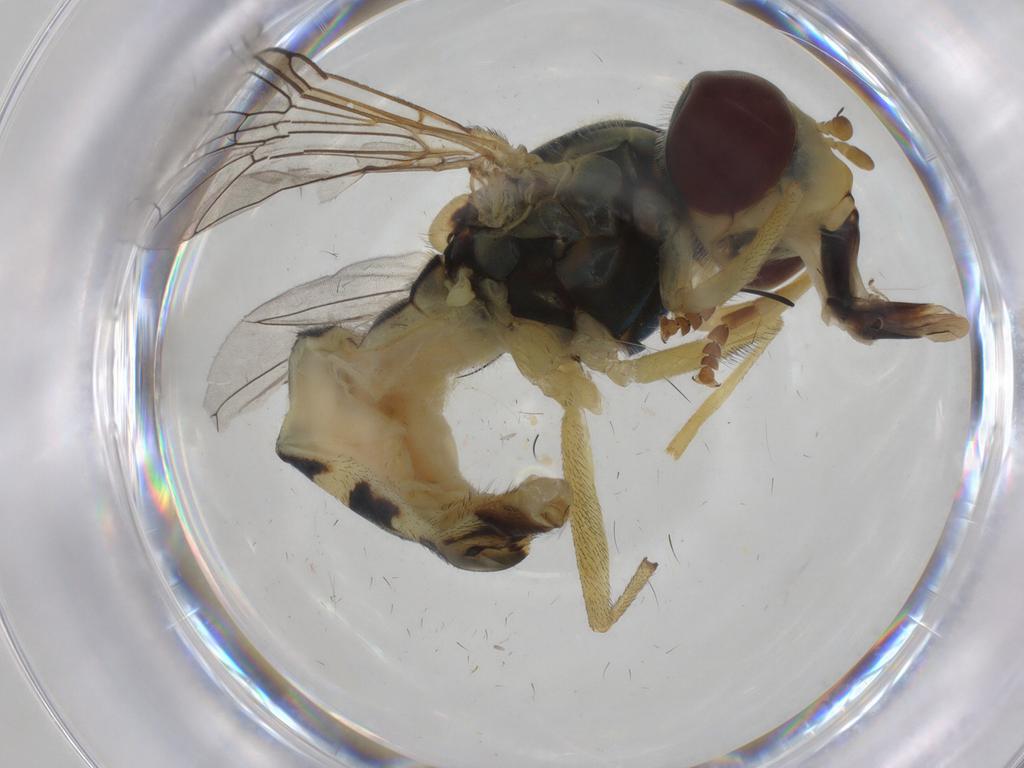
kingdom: Animalia
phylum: Arthropoda
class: Insecta
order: Diptera
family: Syrphidae
